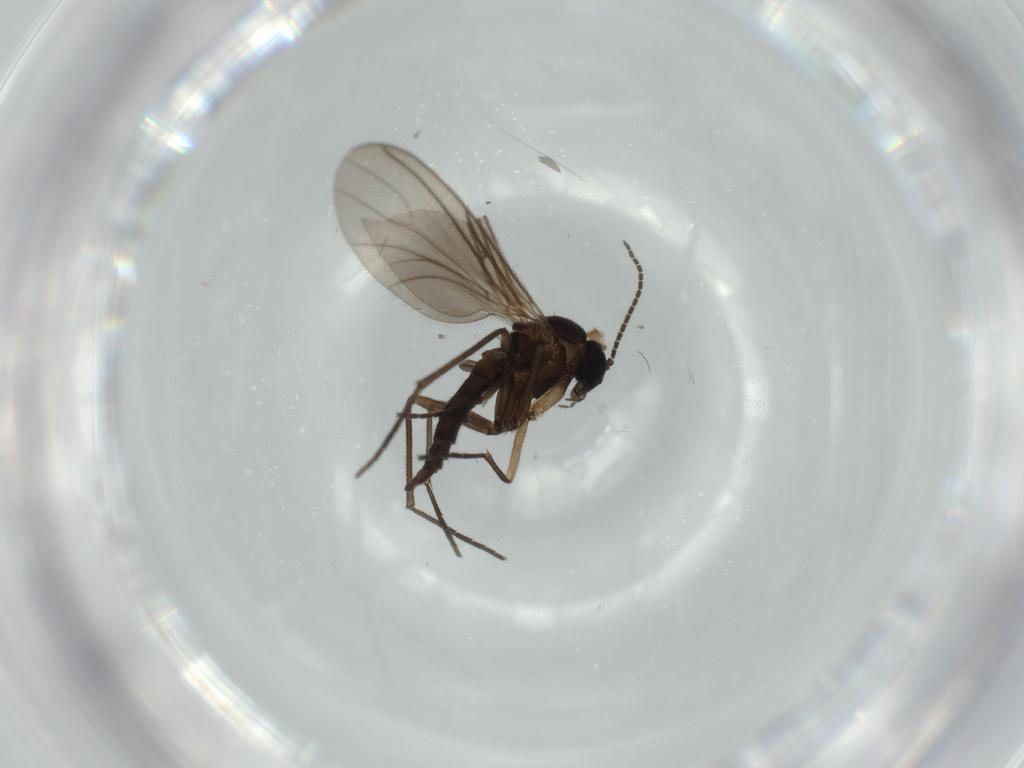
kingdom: Animalia
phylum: Arthropoda
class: Insecta
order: Diptera
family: Sciaridae
